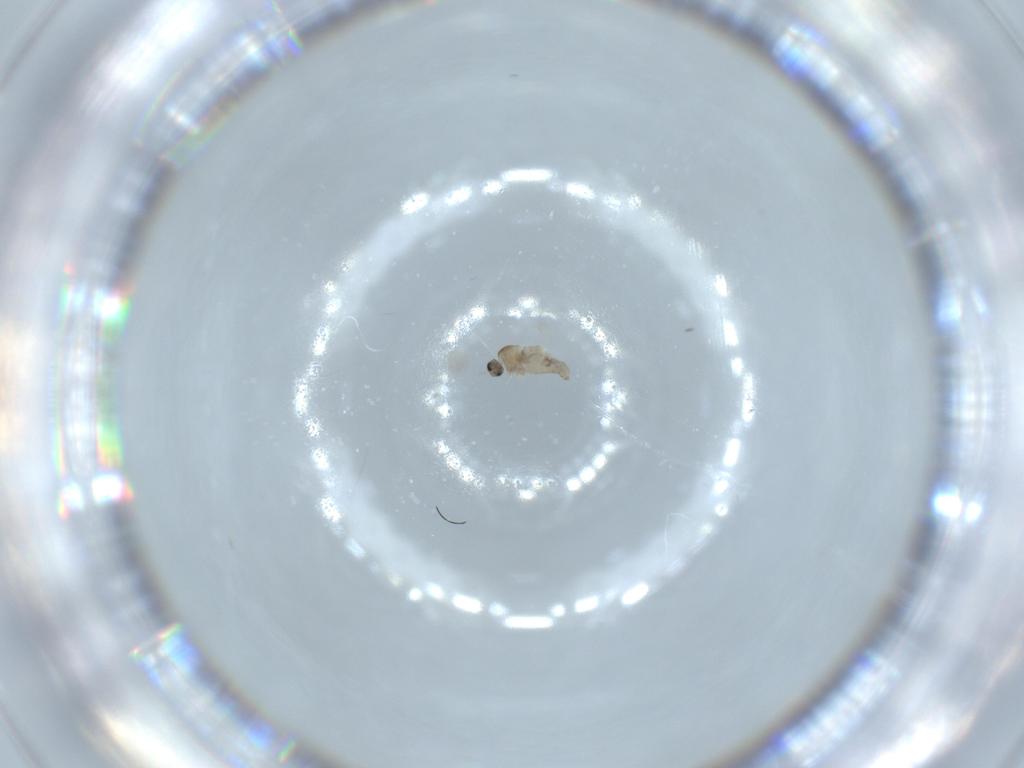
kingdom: Animalia
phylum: Arthropoda
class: Insecta
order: Diptera
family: Cecidomyiidae
